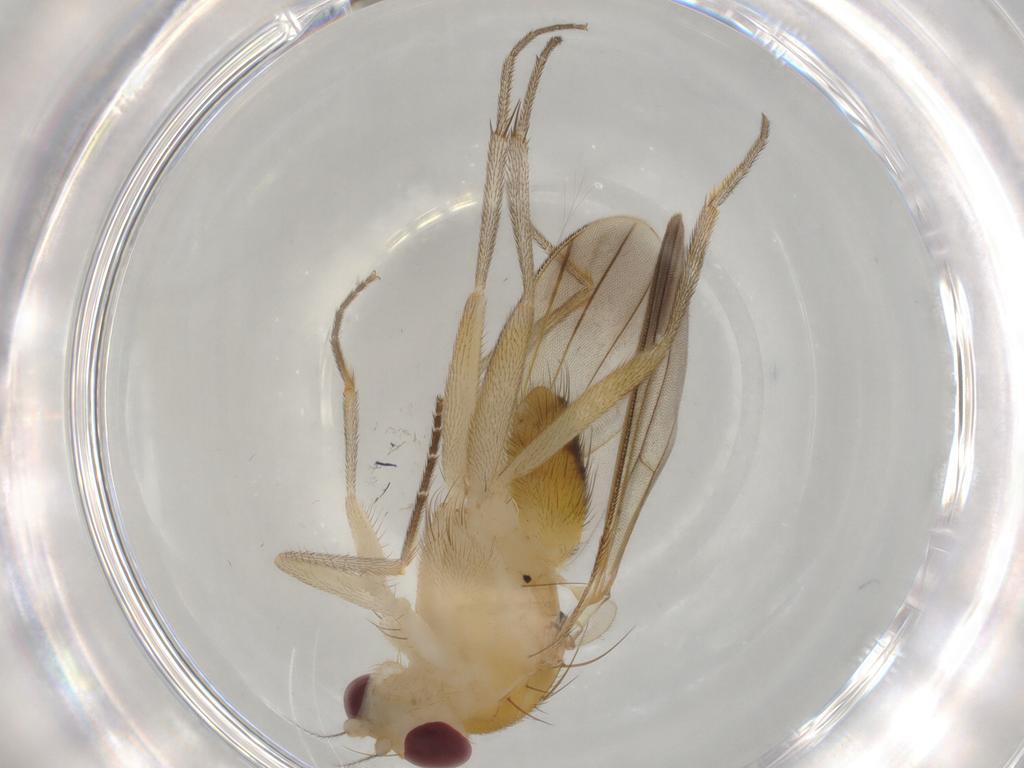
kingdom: Animalia
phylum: Arthropoda
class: Insecta
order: Diptera
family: Clusiidae
